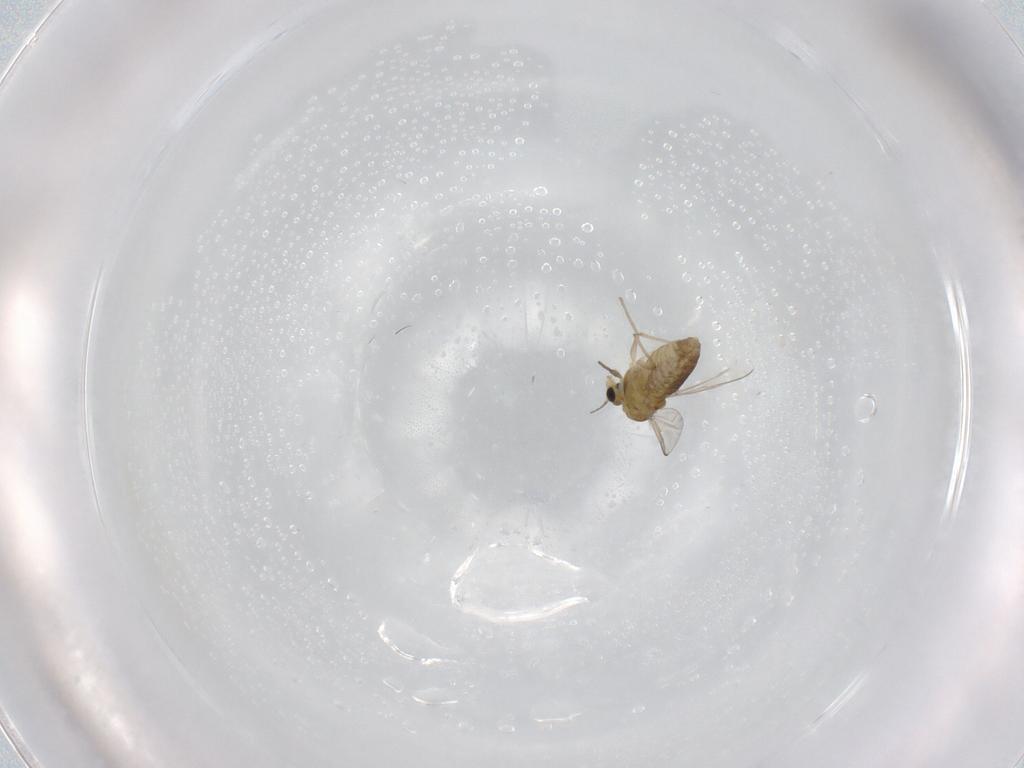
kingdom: Animalia
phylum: Arthropoda
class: Insecta
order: Diptera
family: Chironomidae
